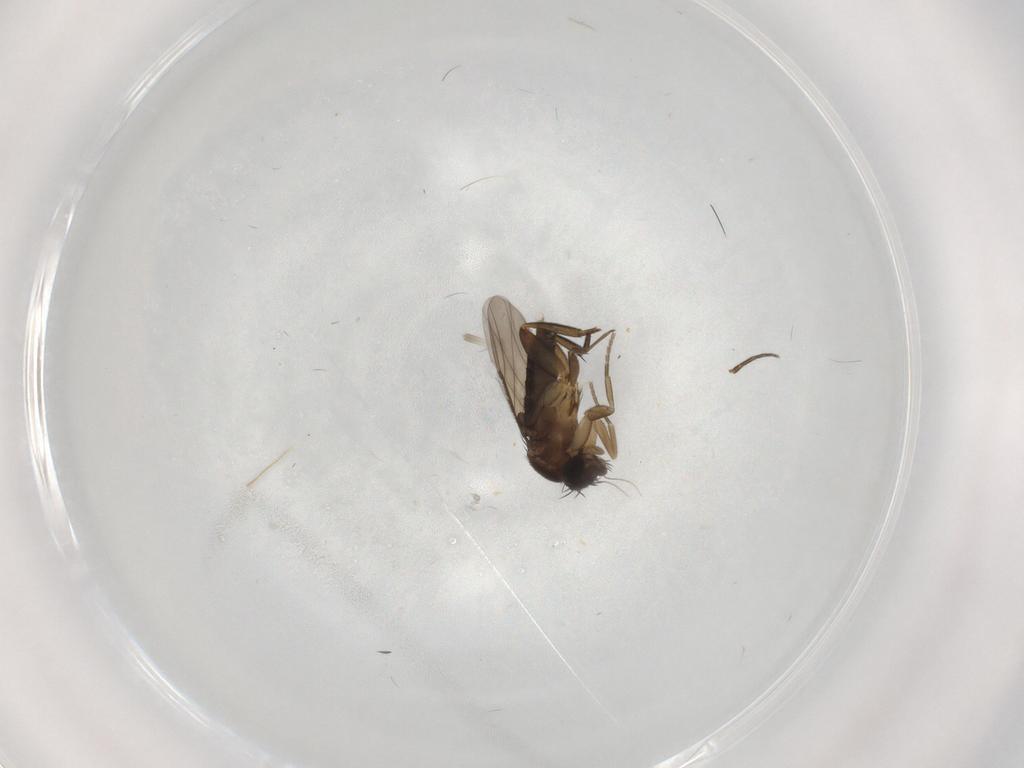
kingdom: Animalia
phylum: Arthropoda
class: Insecta
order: Diptera
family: Phoridae
